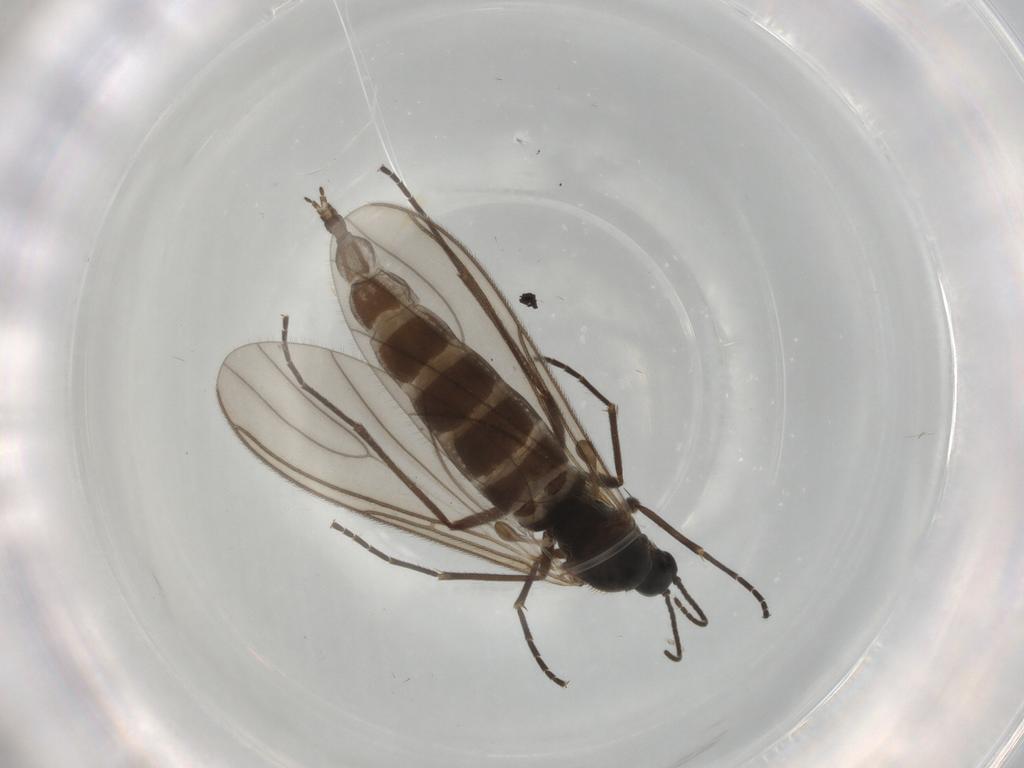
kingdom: Animalia
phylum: Arthropoda
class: Insecta
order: Diptera
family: Sciaridae
